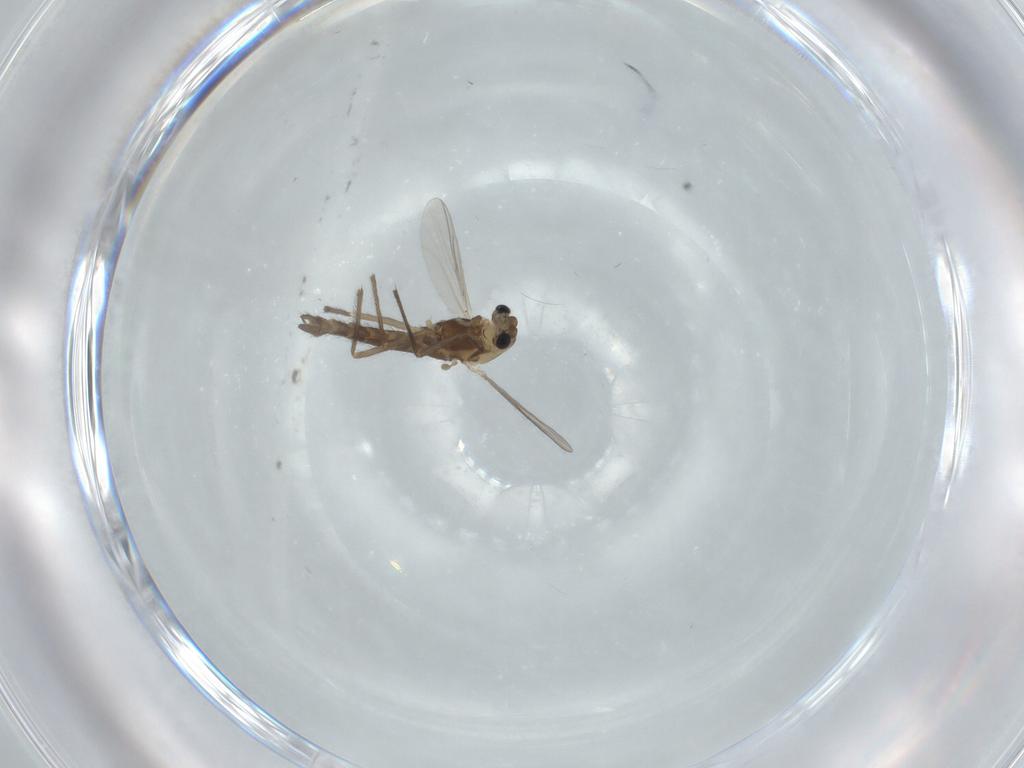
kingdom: Animalia
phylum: Arthropoda
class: Insecta
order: Diptera
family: Chironomidae
